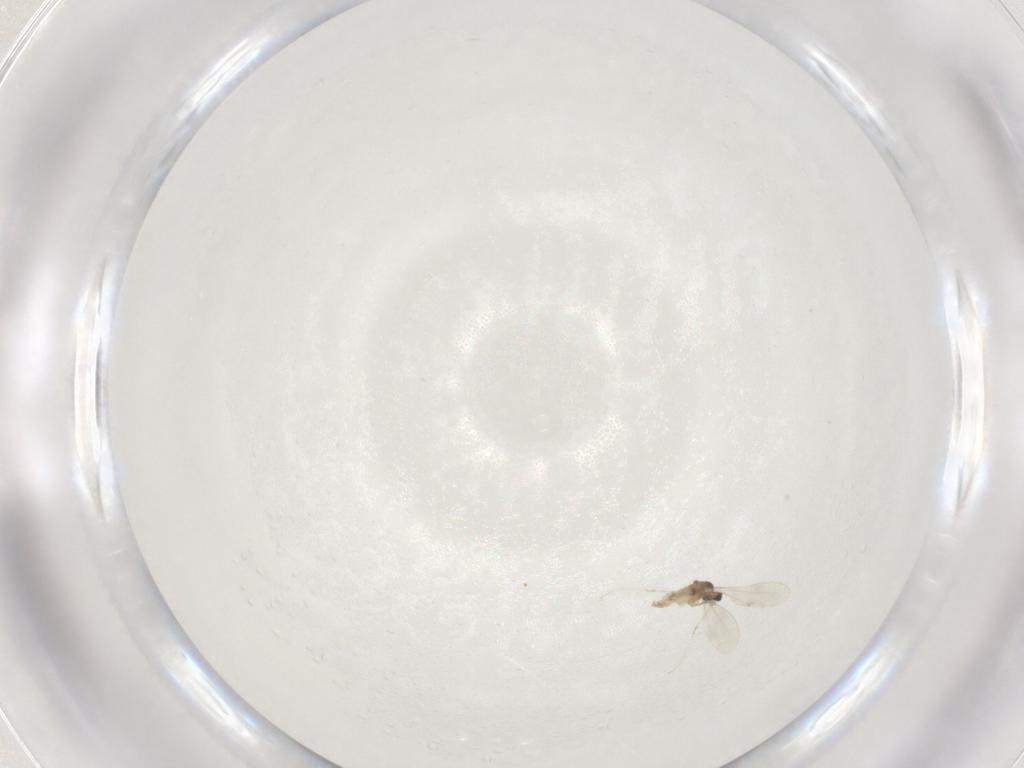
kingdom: Animalia
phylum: Arthropoda
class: Insecta
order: Diptera
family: Cecidomyiidae
